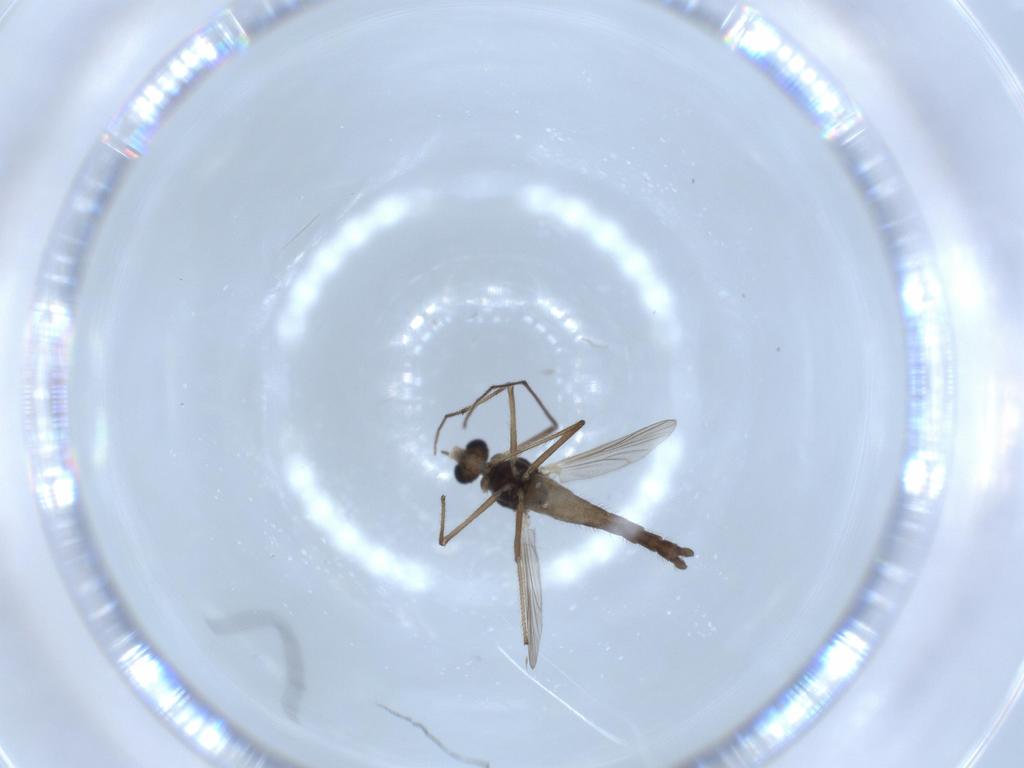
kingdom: Animalia
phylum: Arthropoda
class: Insecta
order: Diptera
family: Chironomidae
